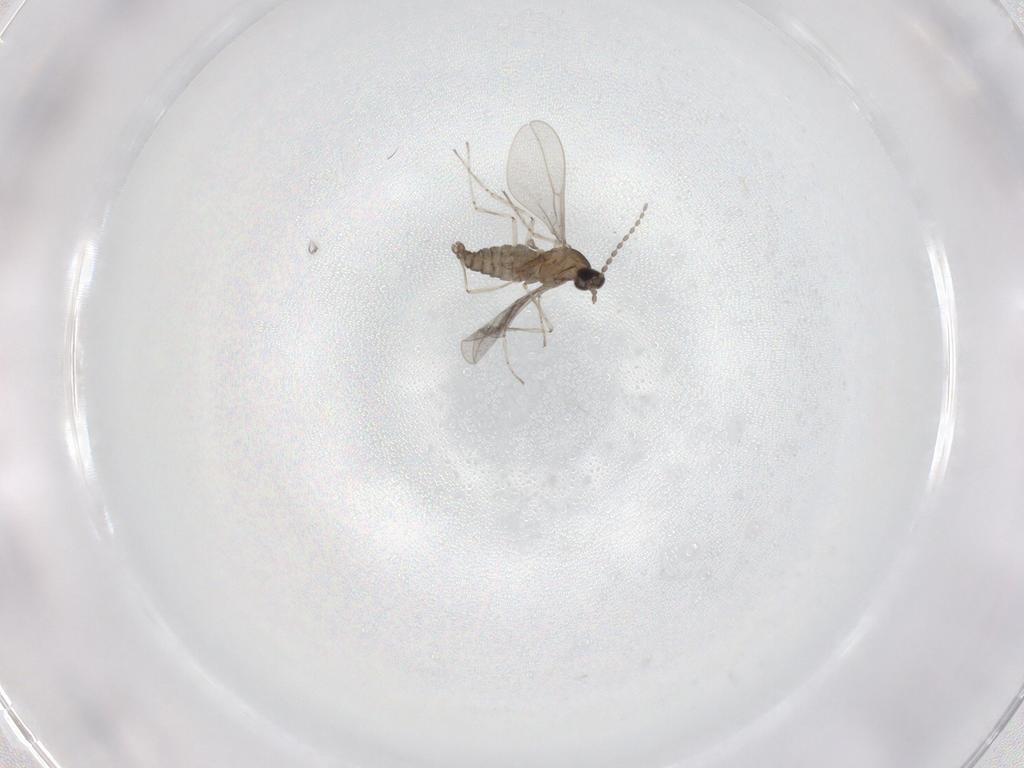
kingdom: Animalia
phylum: Arthropoda
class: Insecta
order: Diptera
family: Cecidomyiidae
